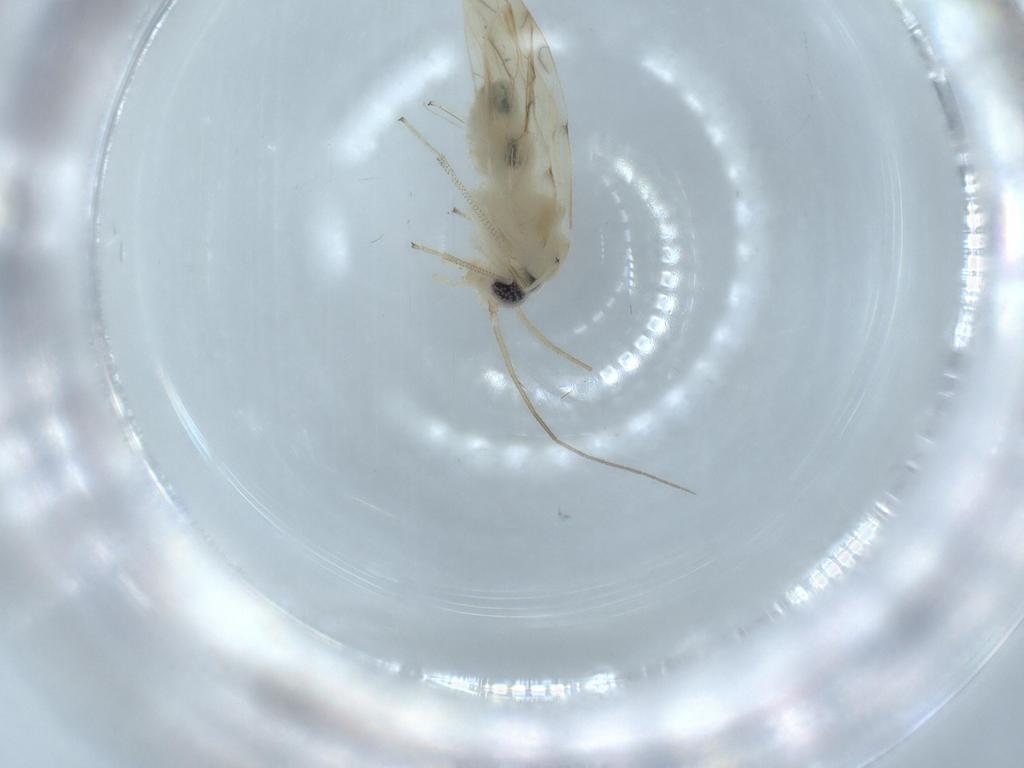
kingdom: Animalia
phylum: Arthropoda
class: Insecta
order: Psocodea
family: Caeciliusidae
